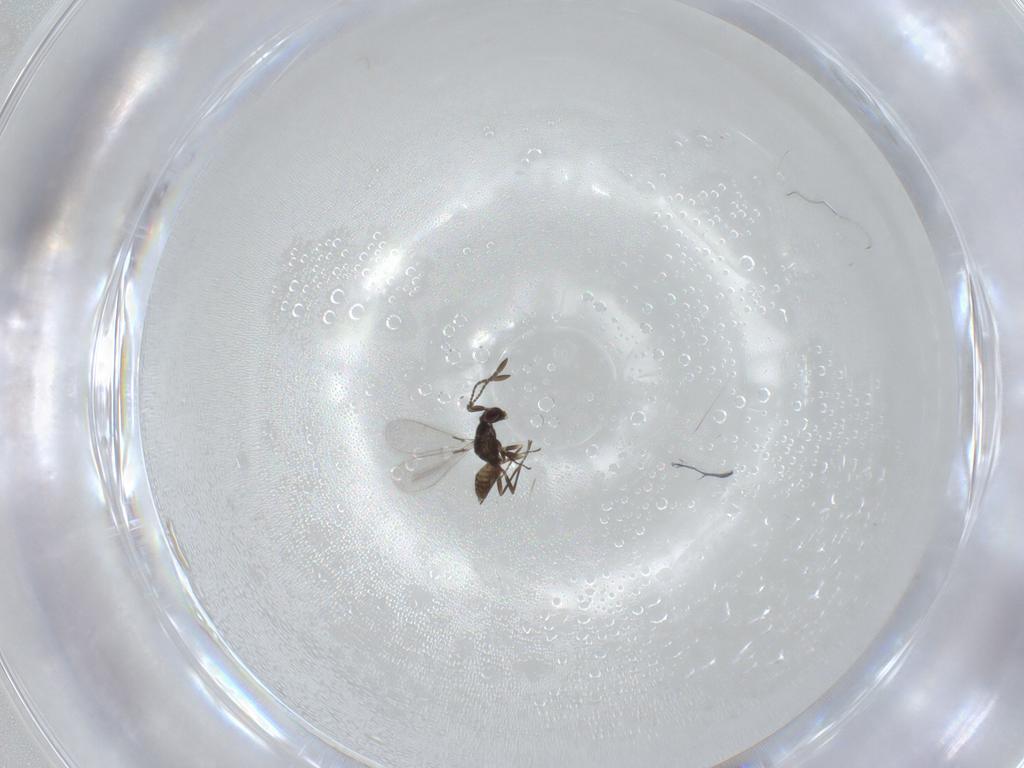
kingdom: Animalia
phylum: Arthropoda
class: Insecta
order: Hymenoptera
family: Mymaridae
